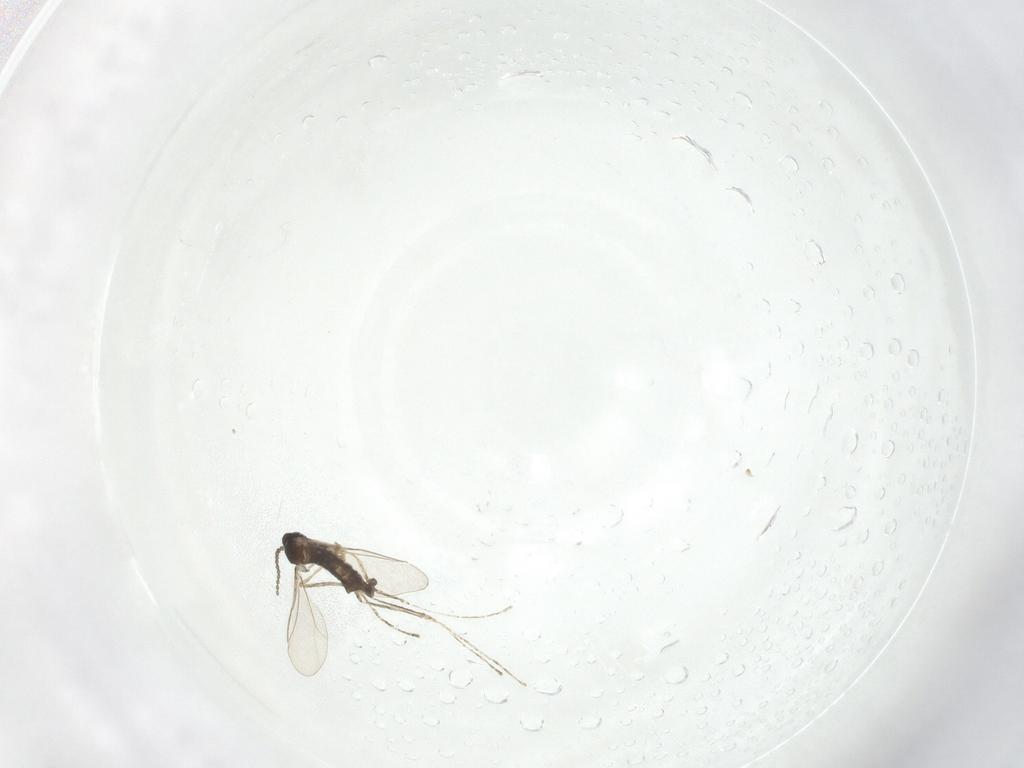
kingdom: Animalia
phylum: Arthropoda
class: Insecta
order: Diptera
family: Cecidomyiidae
